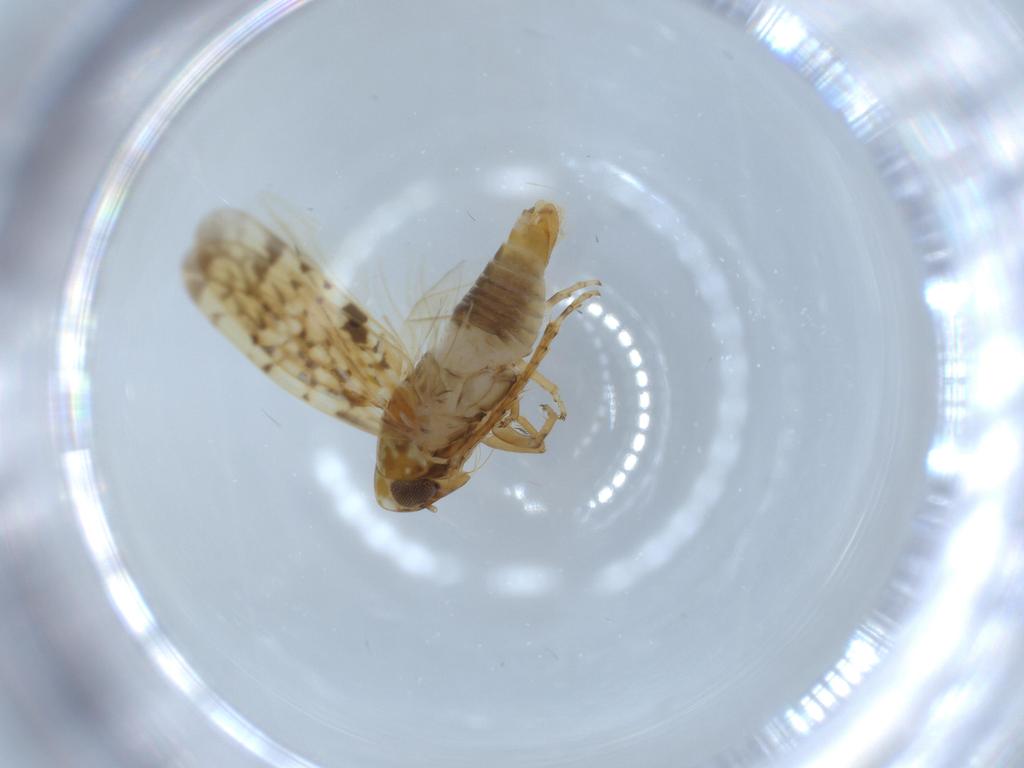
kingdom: Animalia
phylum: Arthropoda
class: Insecta
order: Hemiptera
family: Cicadellidae
